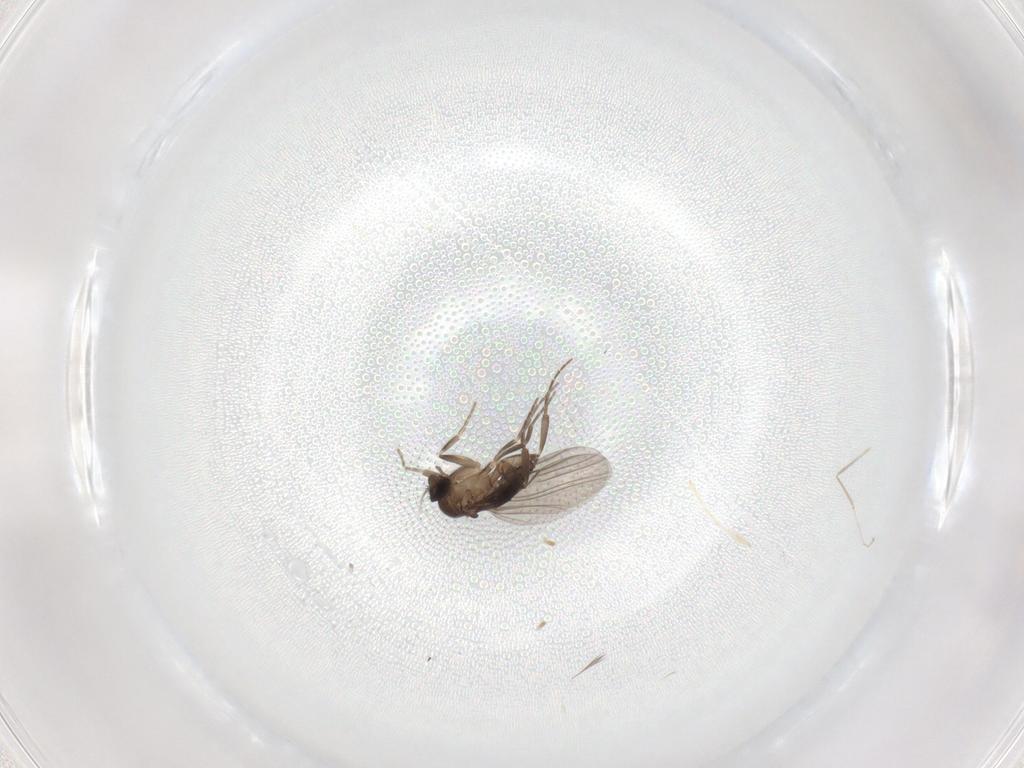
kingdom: Animalia
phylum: Arthropoda
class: Insecta
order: Diptera
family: Chironomidae
